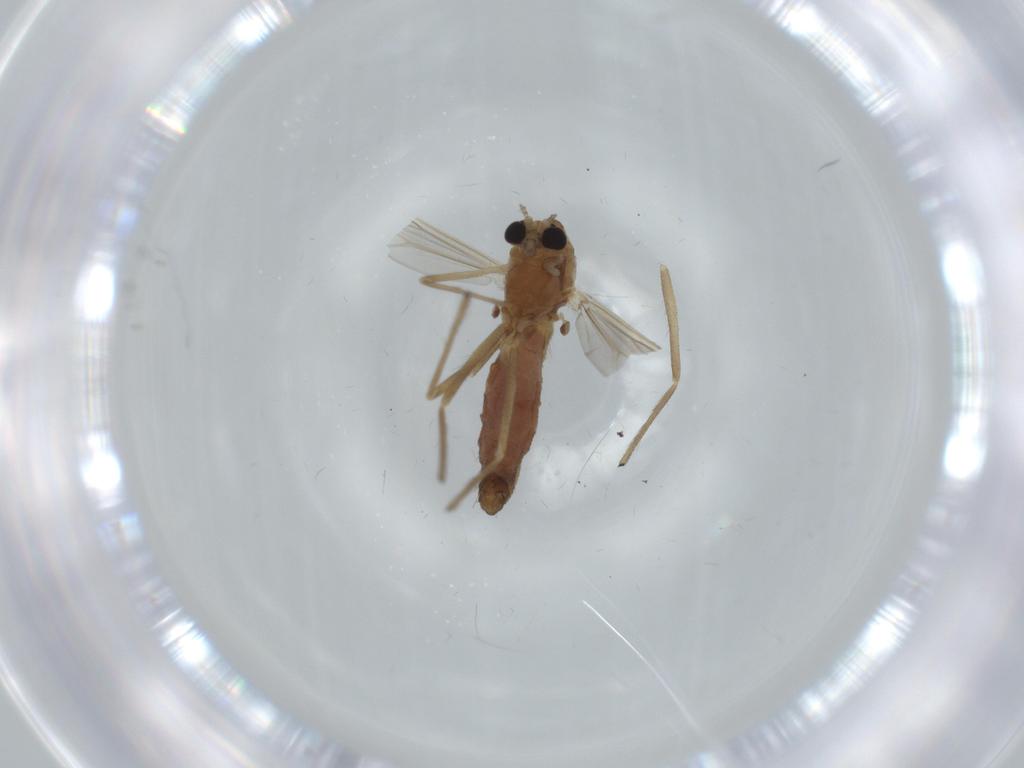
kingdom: Animalia
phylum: Arthropoda
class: Insecta
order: Diptera
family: Chironomidae
